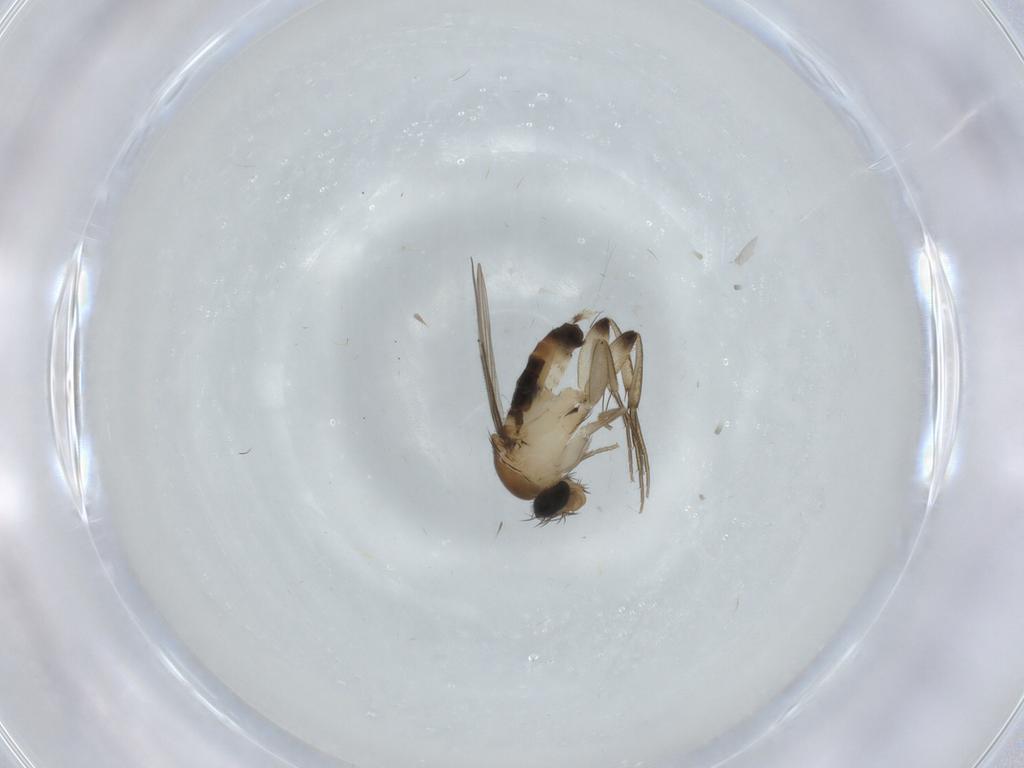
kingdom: Animalia
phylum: Arthropoda
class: Insecta
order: Diptera
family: Phoridae
